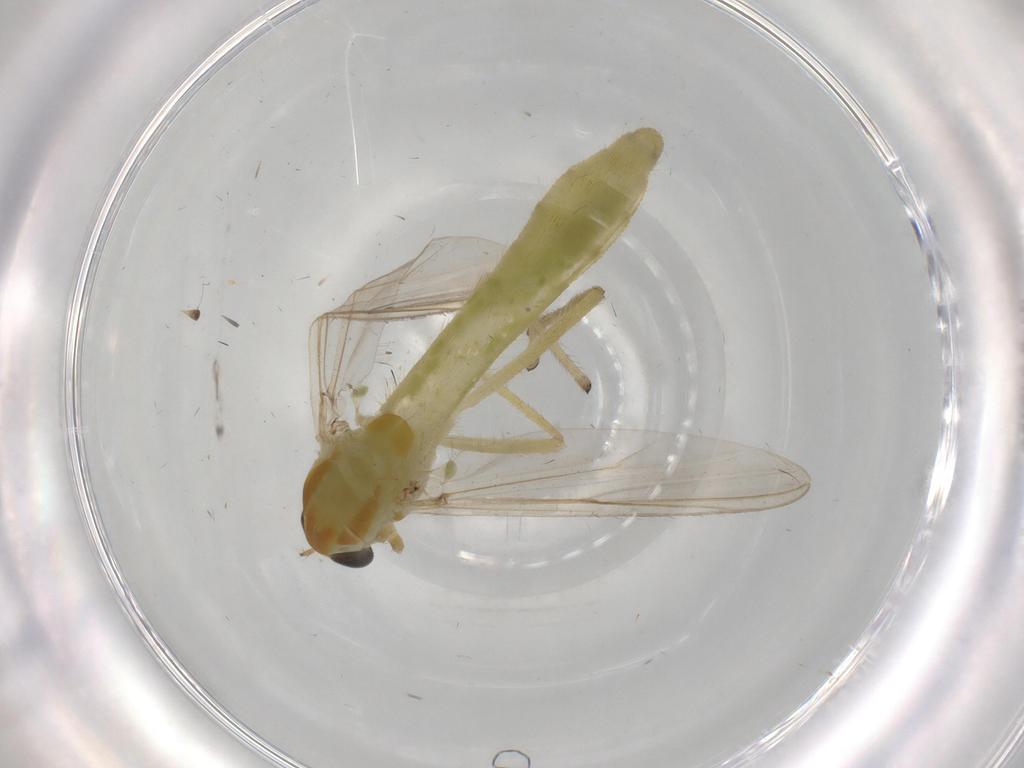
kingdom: Animalia
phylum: Arthropoda
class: Insecta
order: Diptera
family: Chironomidae
